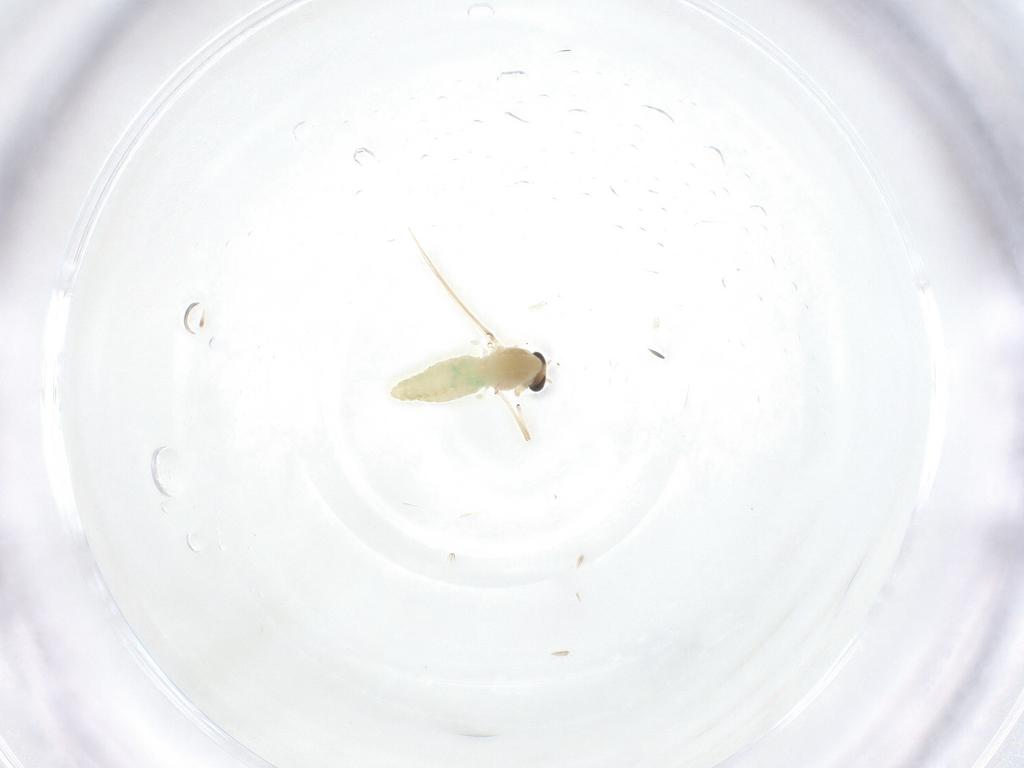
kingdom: Animalia
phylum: Arthropoda
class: Insecta
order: Diptera
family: Chironomidae
